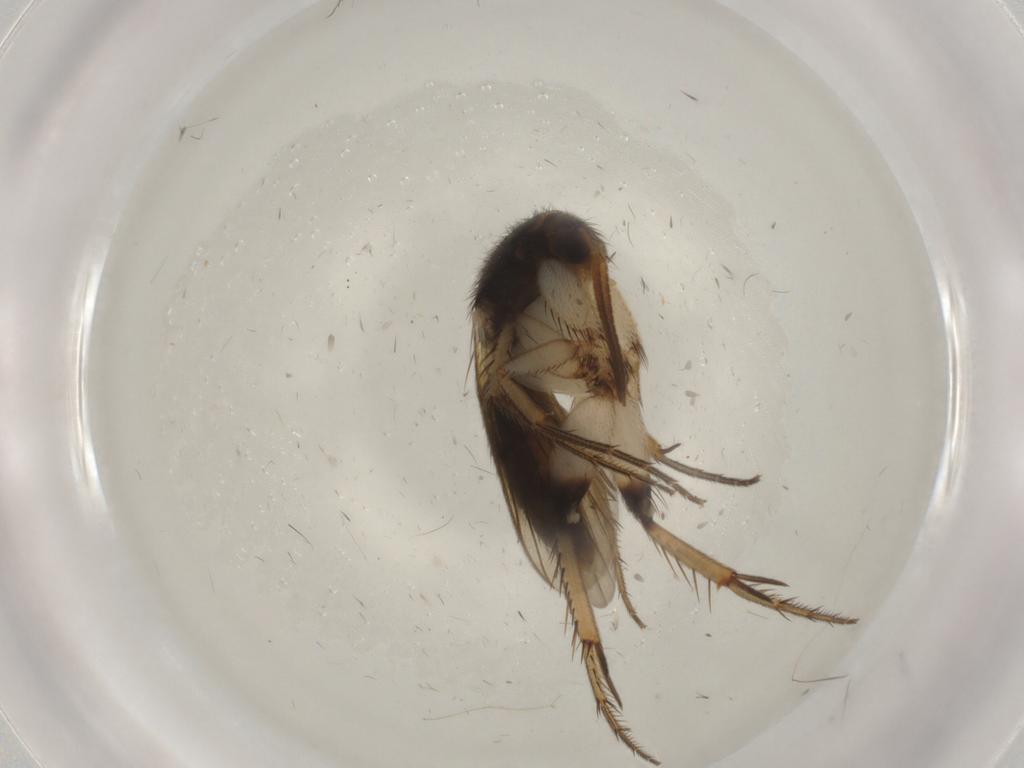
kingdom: Animalia
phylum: Arthropoda
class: Insecta
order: Diptera
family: Mycetophilidae
